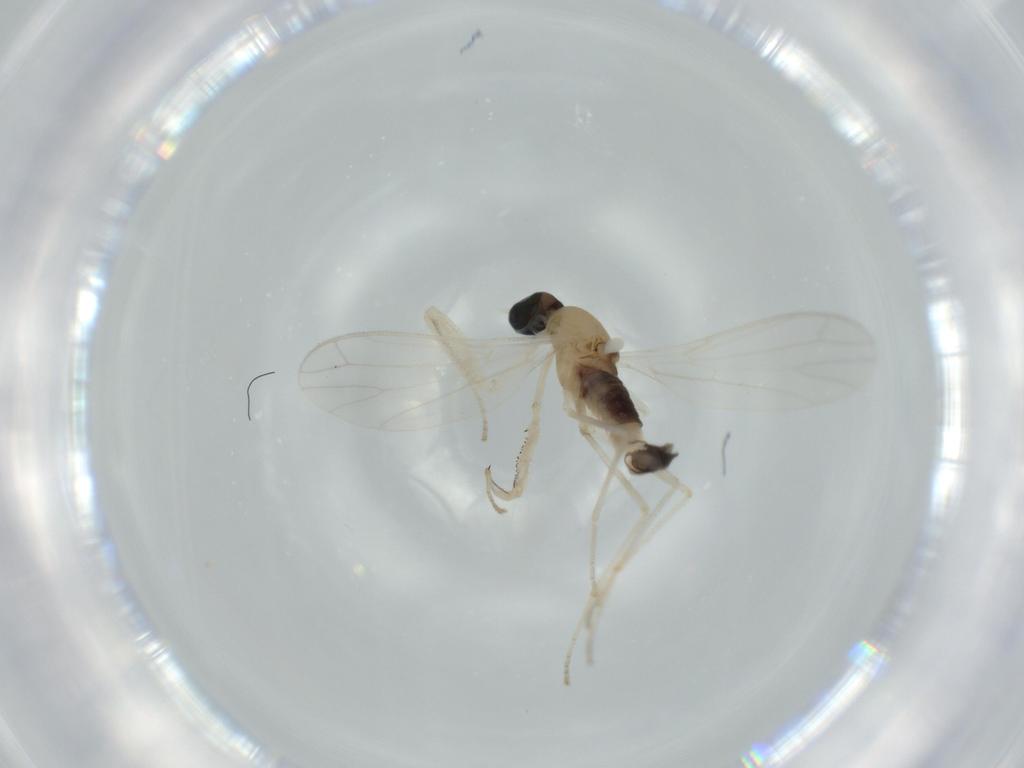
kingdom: Animalia
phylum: Arthropoda
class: Insecta
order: Diptera
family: Empididae
